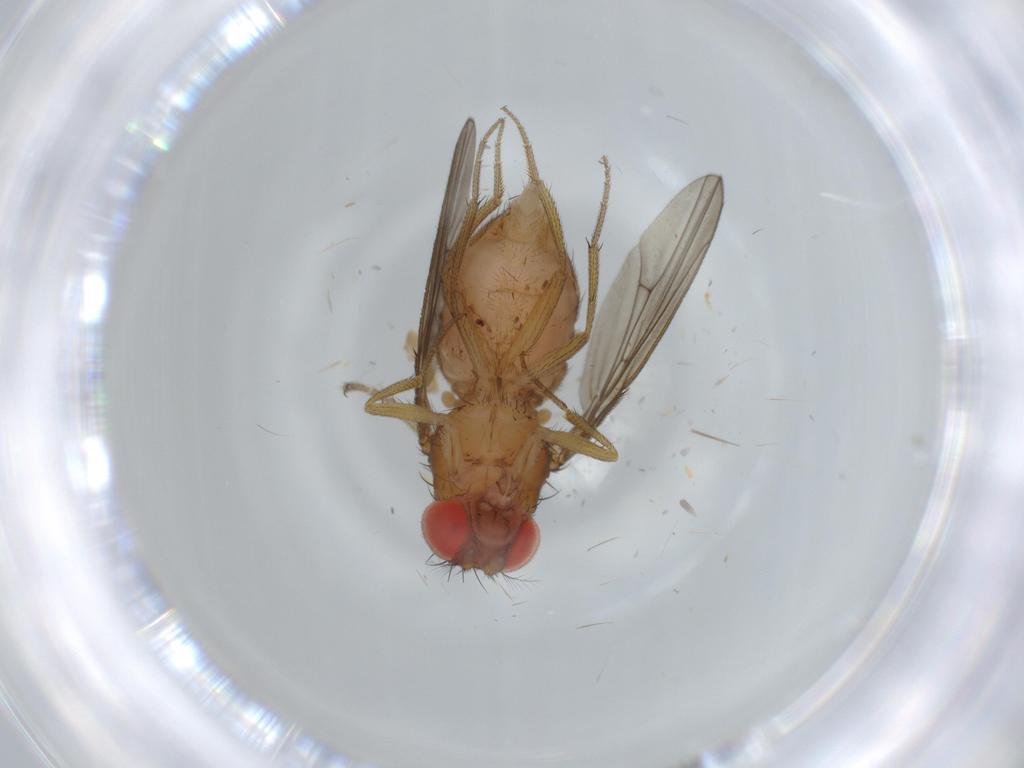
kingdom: Animalia
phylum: Arthropoda
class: Insecta
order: Diptera
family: Drosophilidae
